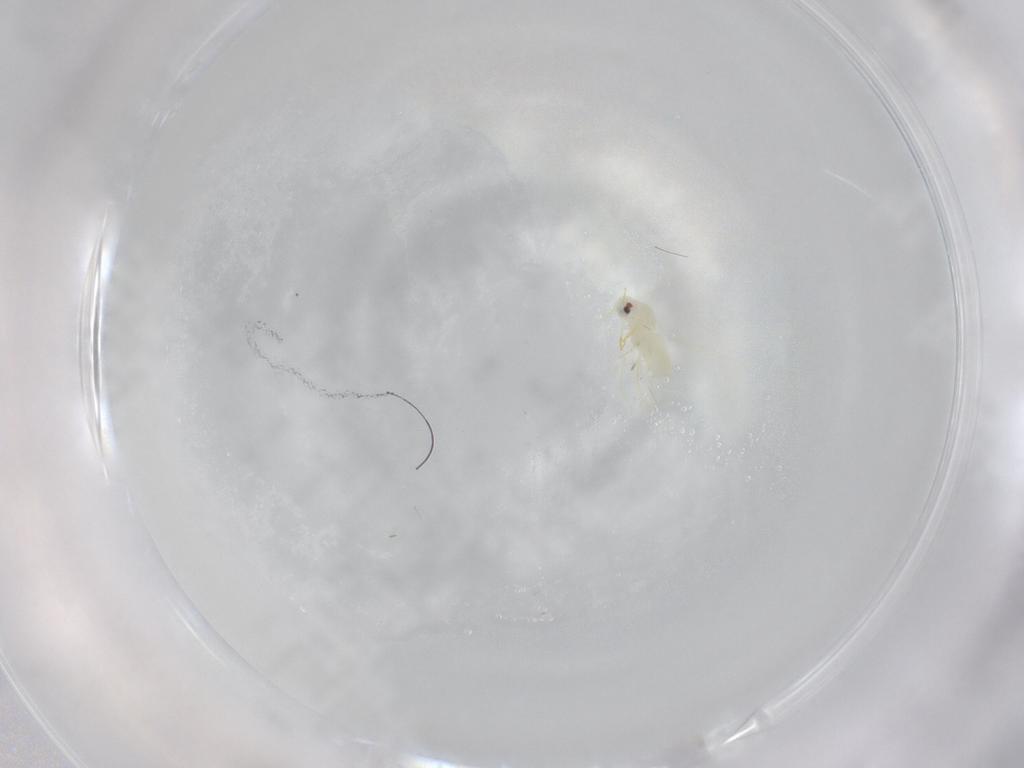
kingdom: Animalia
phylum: Arthropoda
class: Insecta
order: Hemiptera
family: Aleyrodidae
